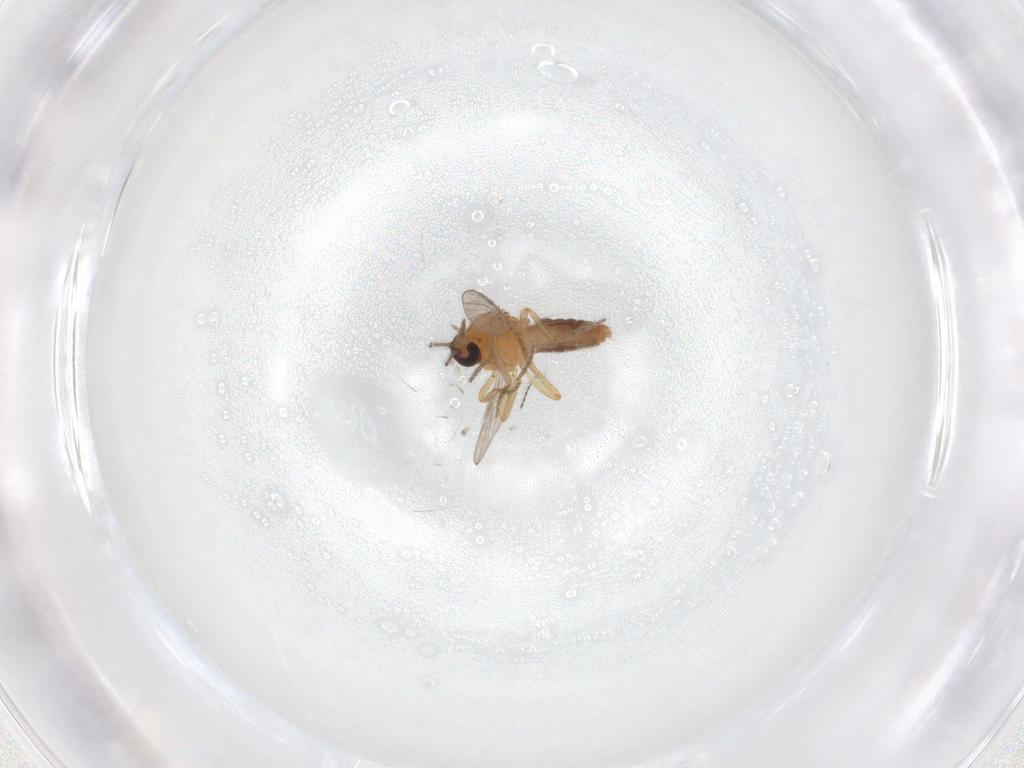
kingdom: Animalia
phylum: Arthropoda
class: Insecta
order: Diptera
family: Ceratopogonidae
